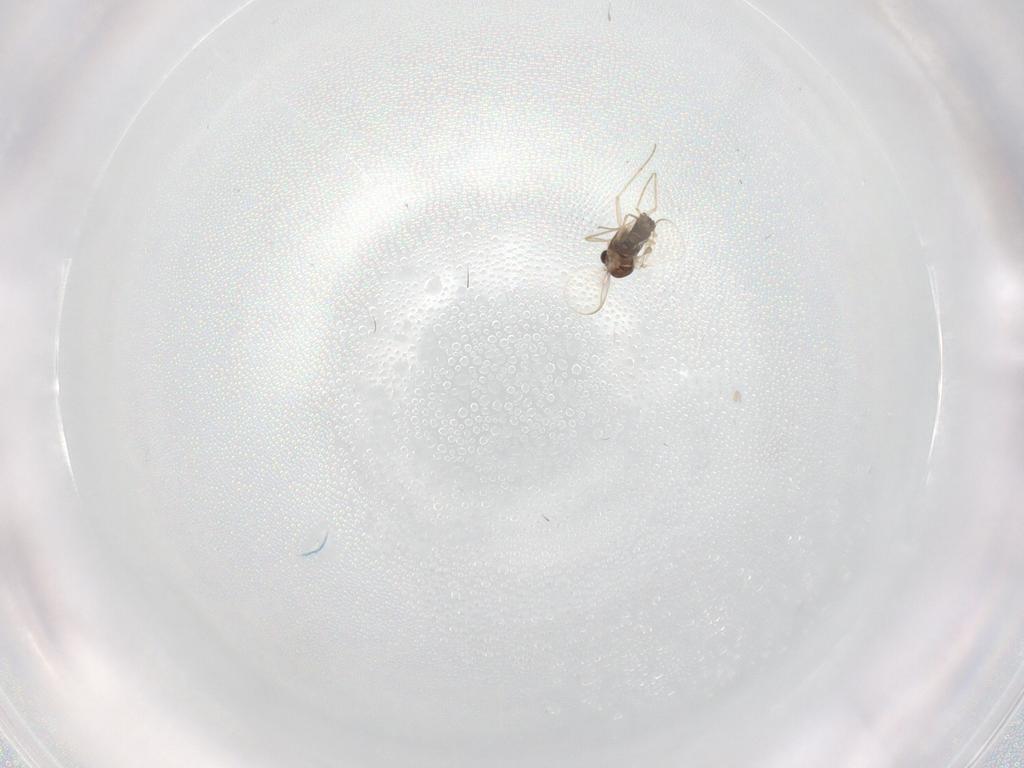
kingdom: Animalia
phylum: Arthropoda
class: Insecta
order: Diptera
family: Chironomidae
